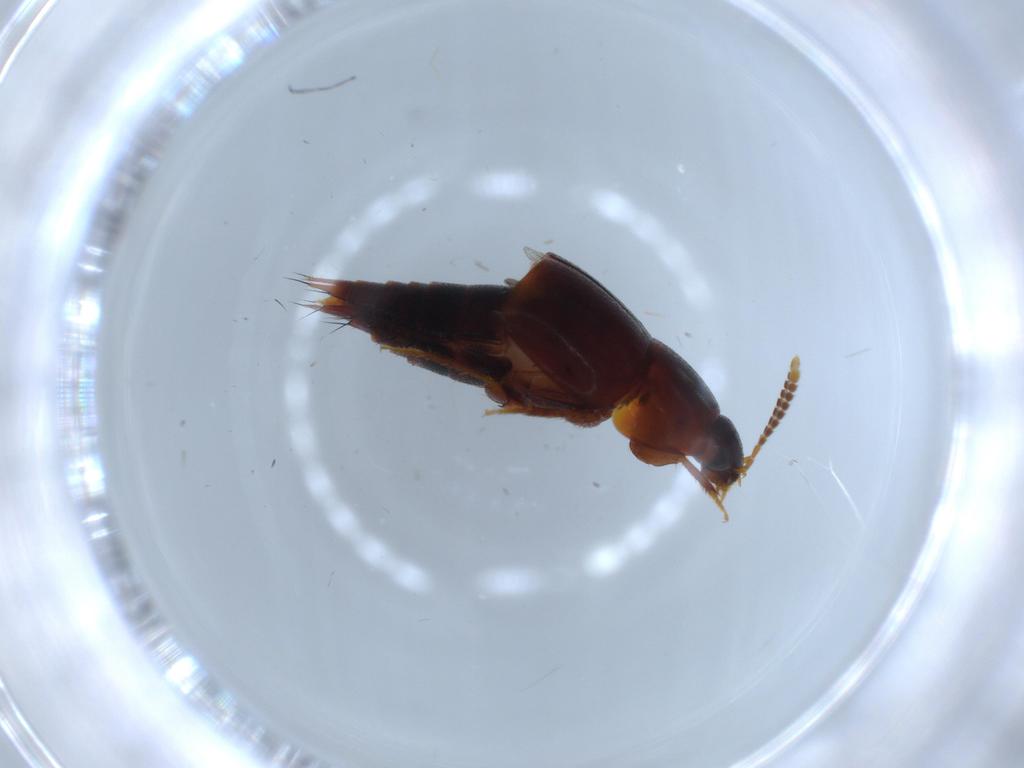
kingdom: Animalia
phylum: Arthropoda
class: Insecta
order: Coleoptera
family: Staphylinidae
